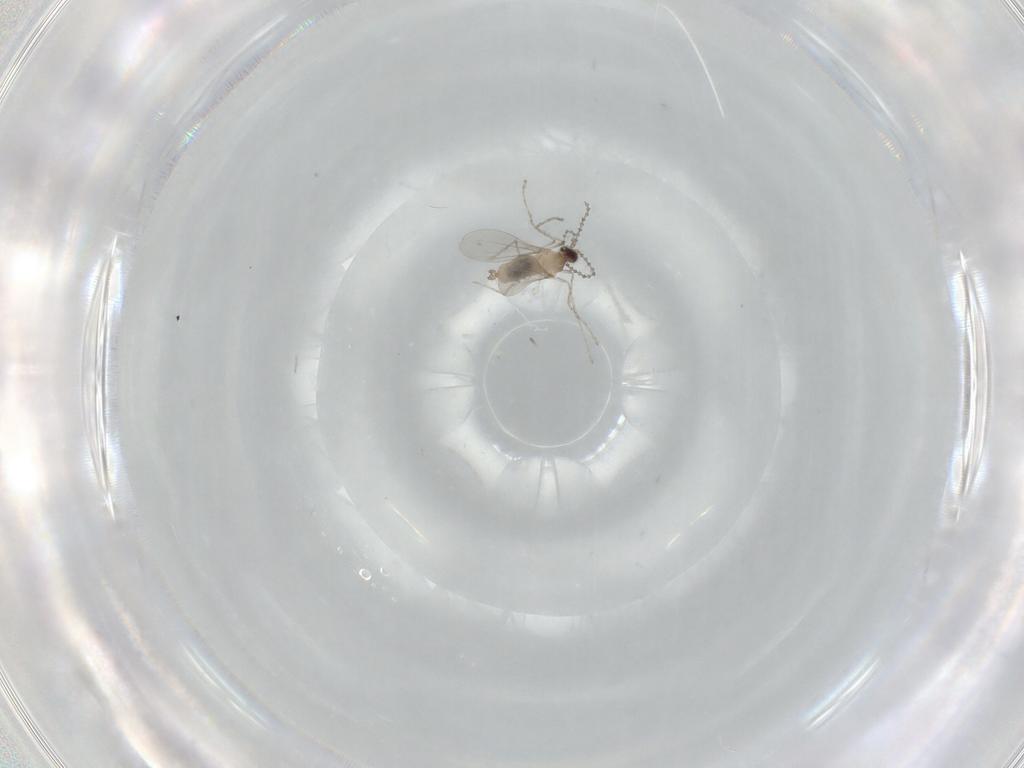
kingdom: Animalia
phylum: Arthropoda
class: Insecta
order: Diptera
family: Cecidomyiidae
